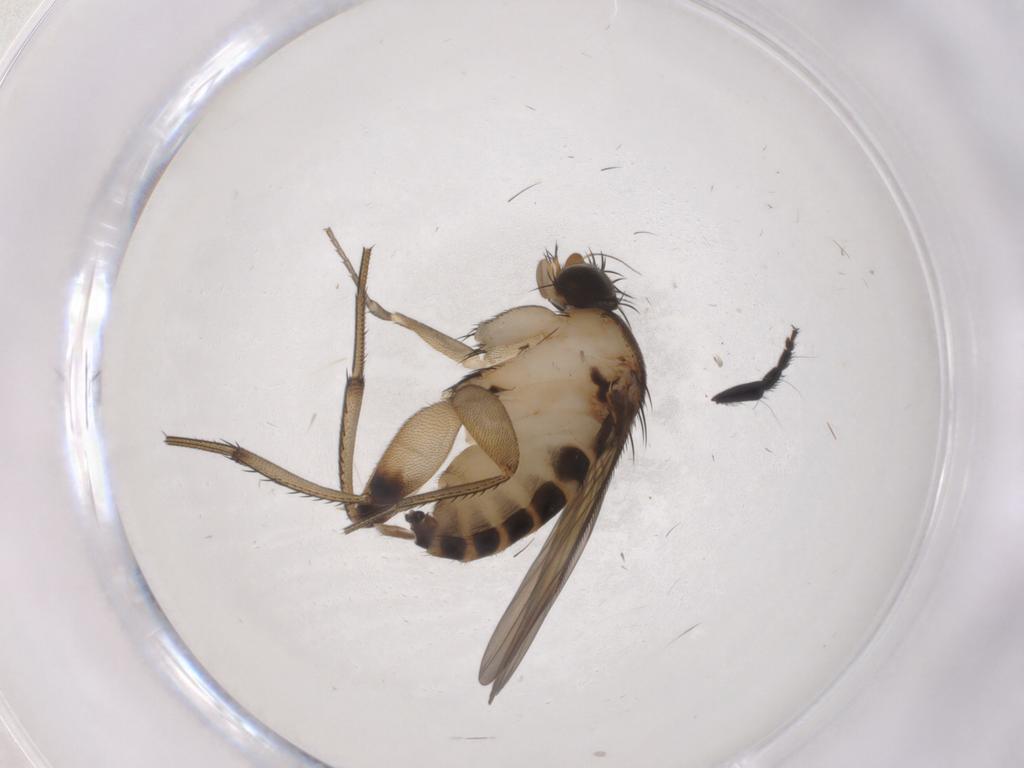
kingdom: Animalia
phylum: Arthropoda
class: Insecta
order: Diptera
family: Phoridae
